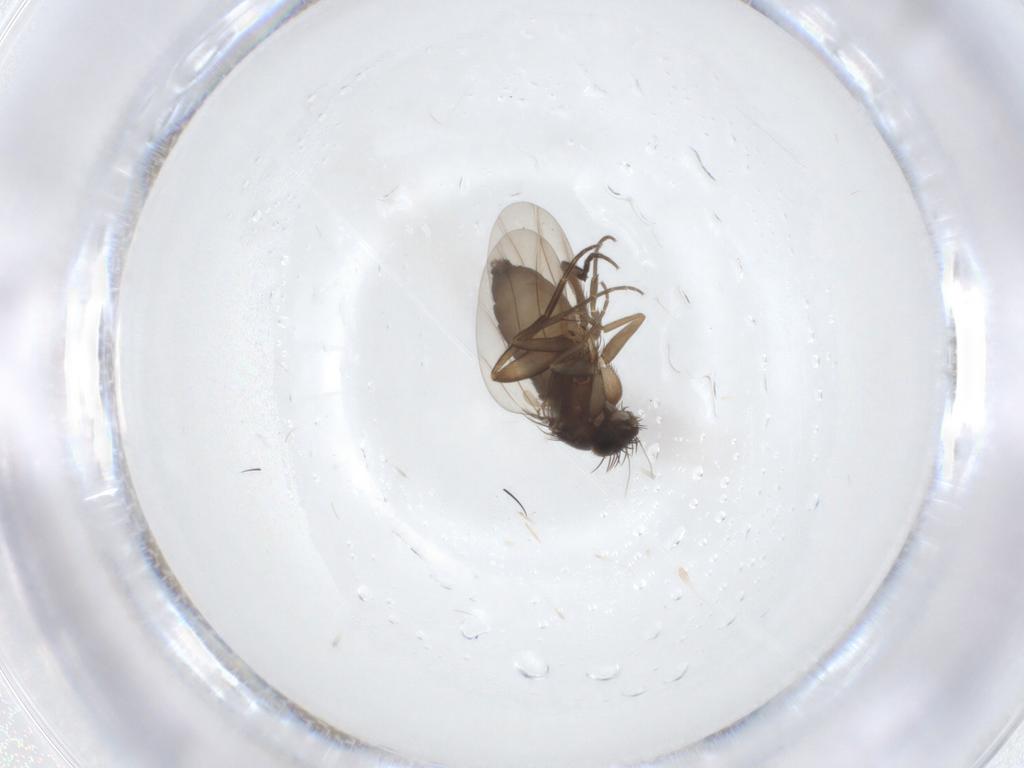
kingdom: Animalia
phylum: Arthropoda
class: Insecta
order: Diptera
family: Phoridae
